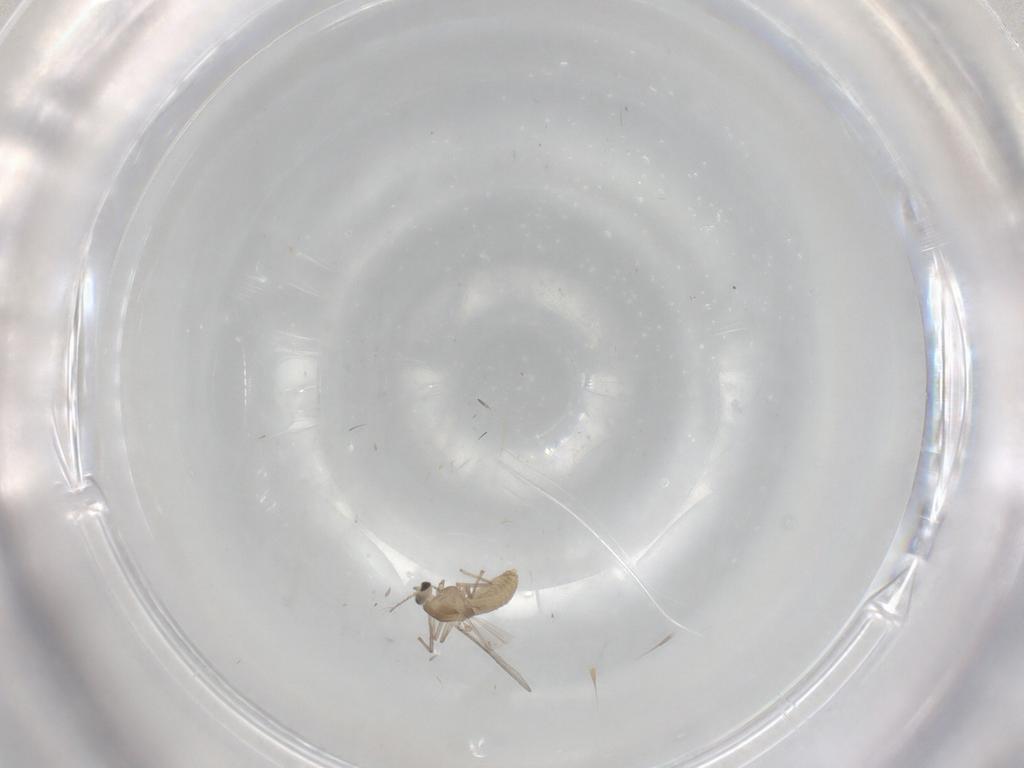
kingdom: Animalia
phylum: Arthropoda
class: Insecta
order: Diptera
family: Chironomidae
